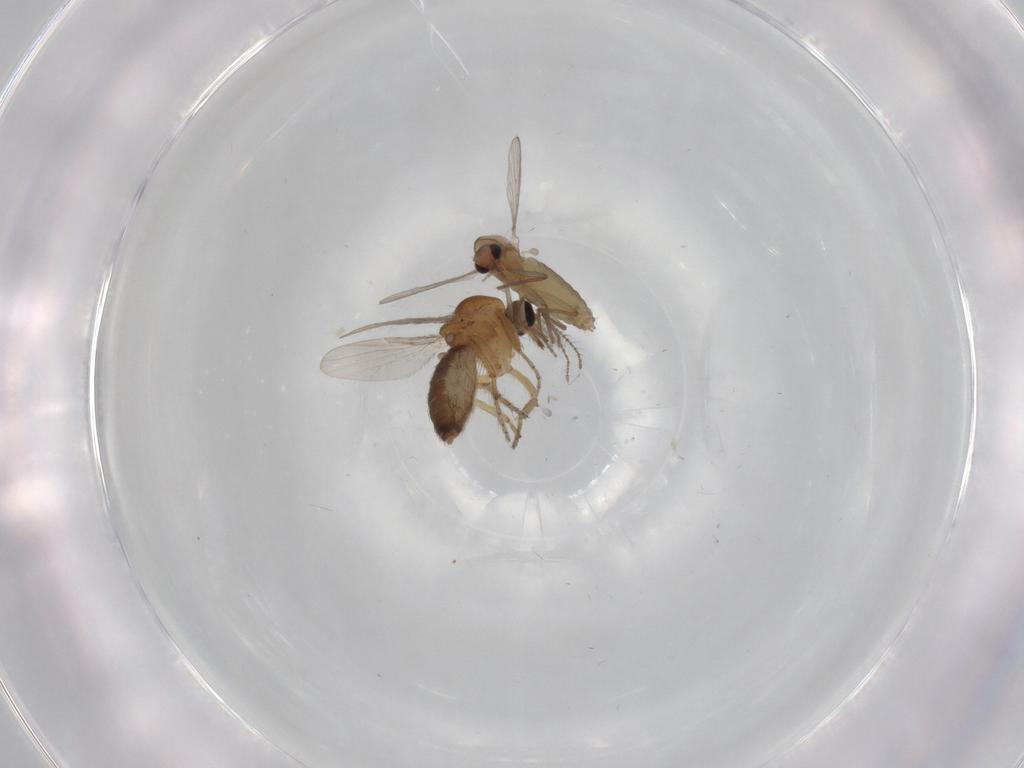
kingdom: Animalia
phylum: Arthropoda
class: Insecta
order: Diptera
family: Ceratopogonidae
